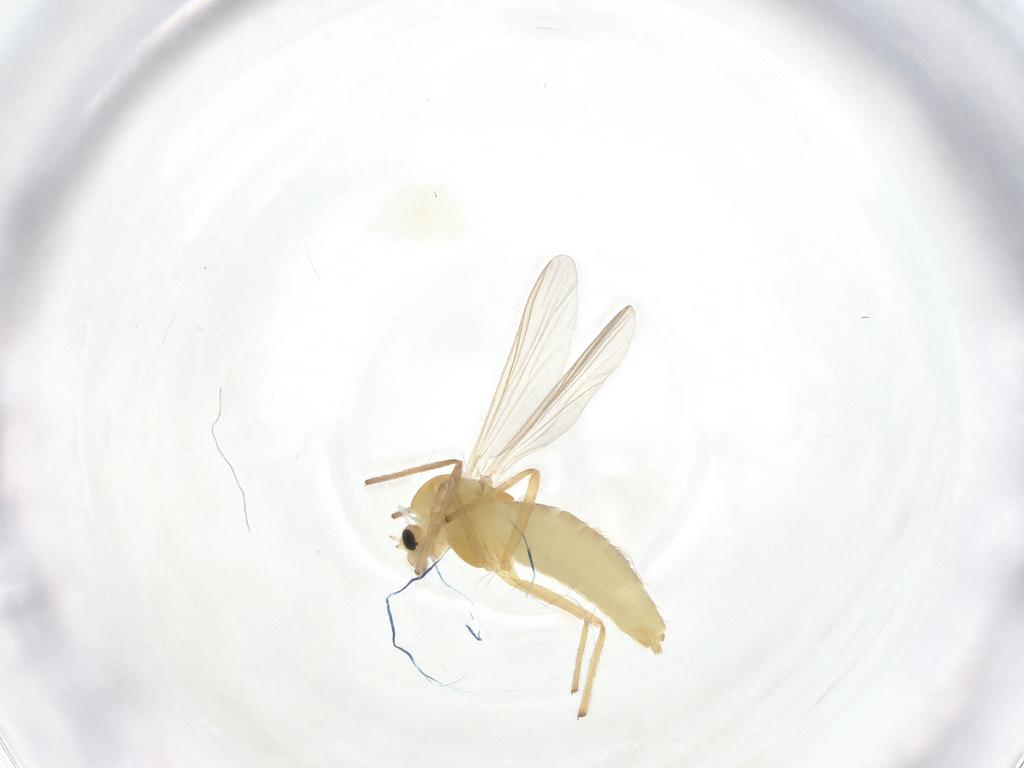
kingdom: Animalia
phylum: Arthropoda
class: Insecta
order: Diptera
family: Chironomidae
